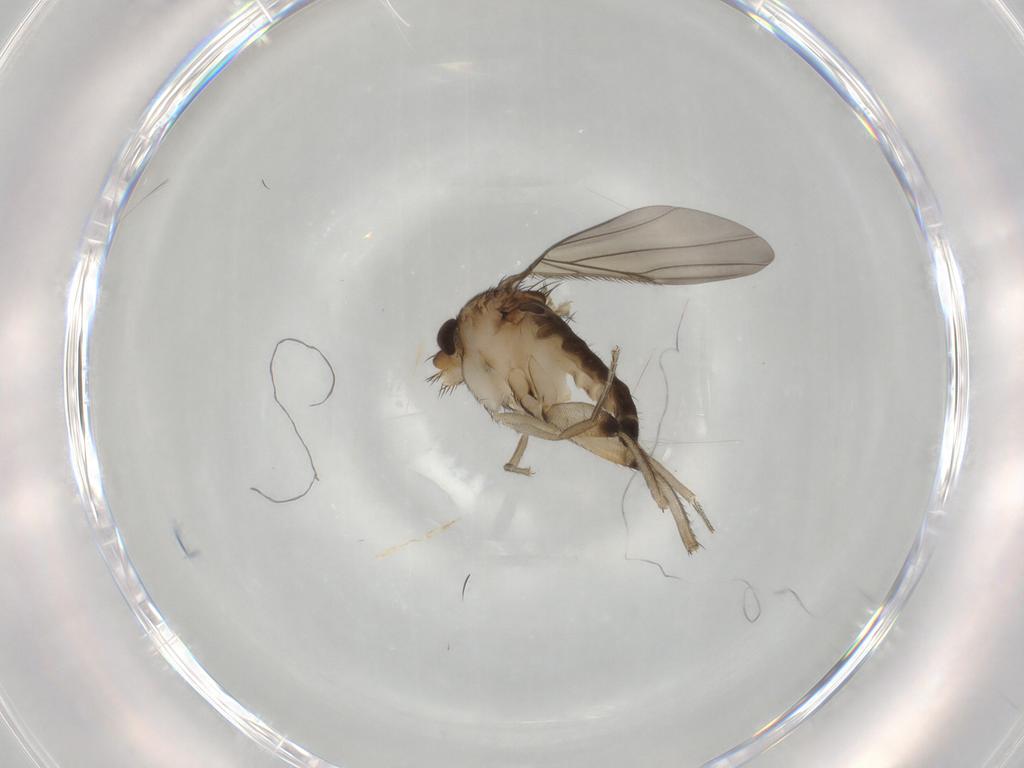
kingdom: Animalia
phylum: Arthropoda
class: Insecta
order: Diptera
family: Phoridae
